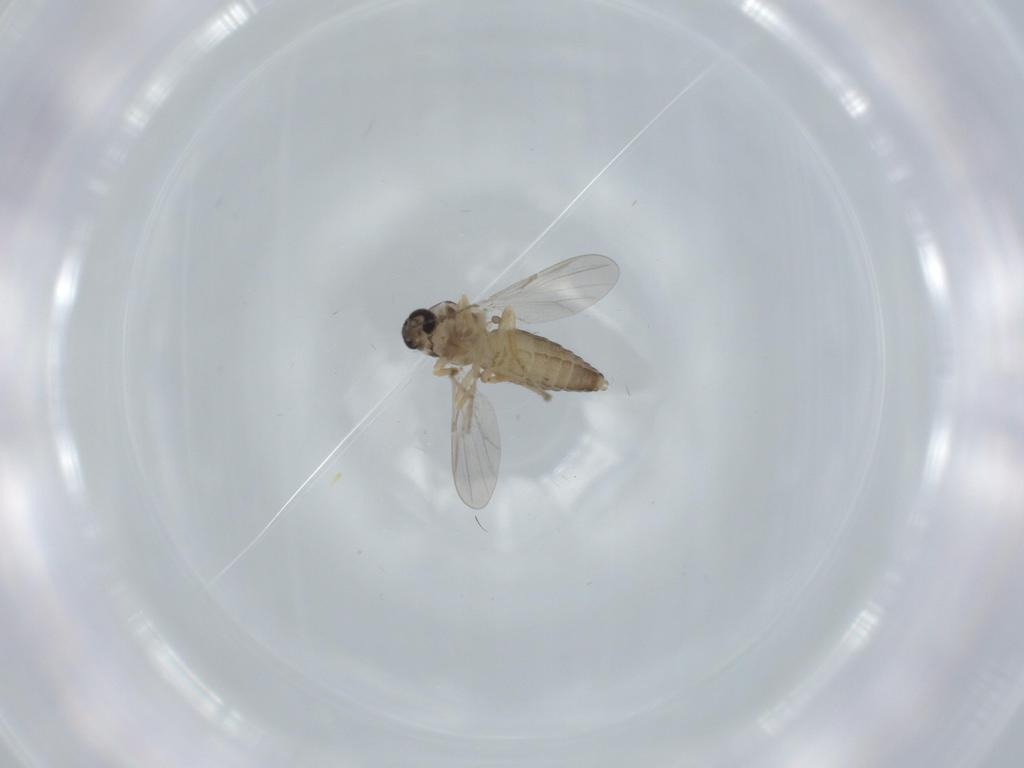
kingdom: Animalia
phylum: Arthropoda
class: Insecta
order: Diptera
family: Ceratopogonidae
